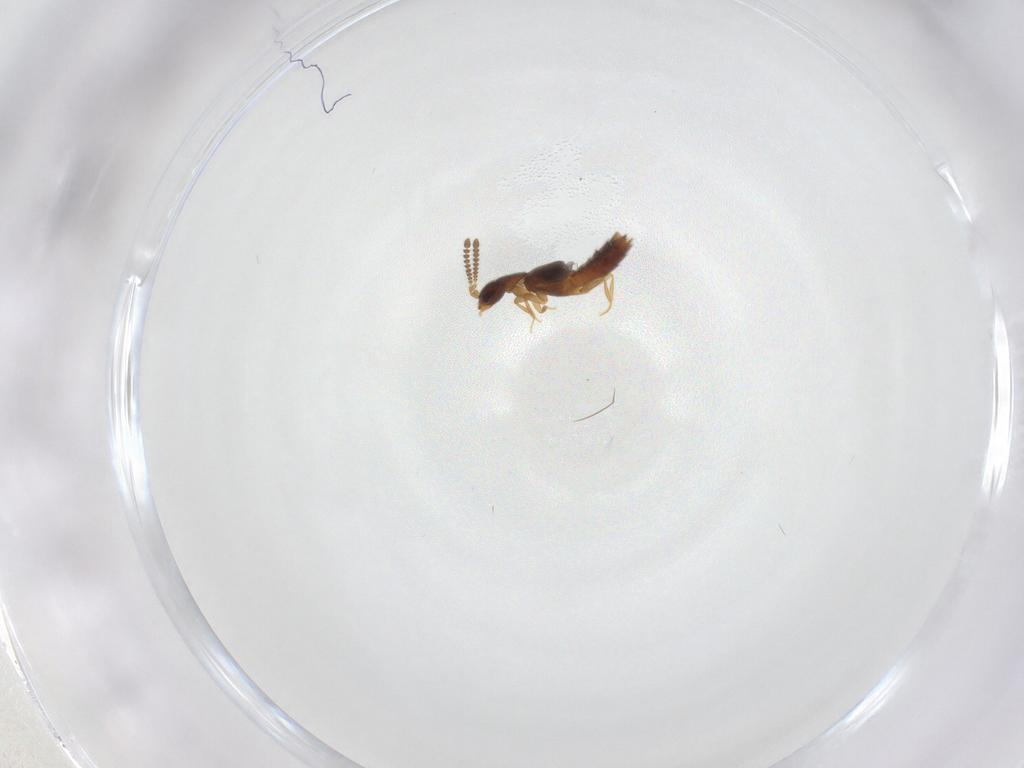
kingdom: Animalia
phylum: Arthropoda
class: Insecta
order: Coleoptera
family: Staphylinidae
